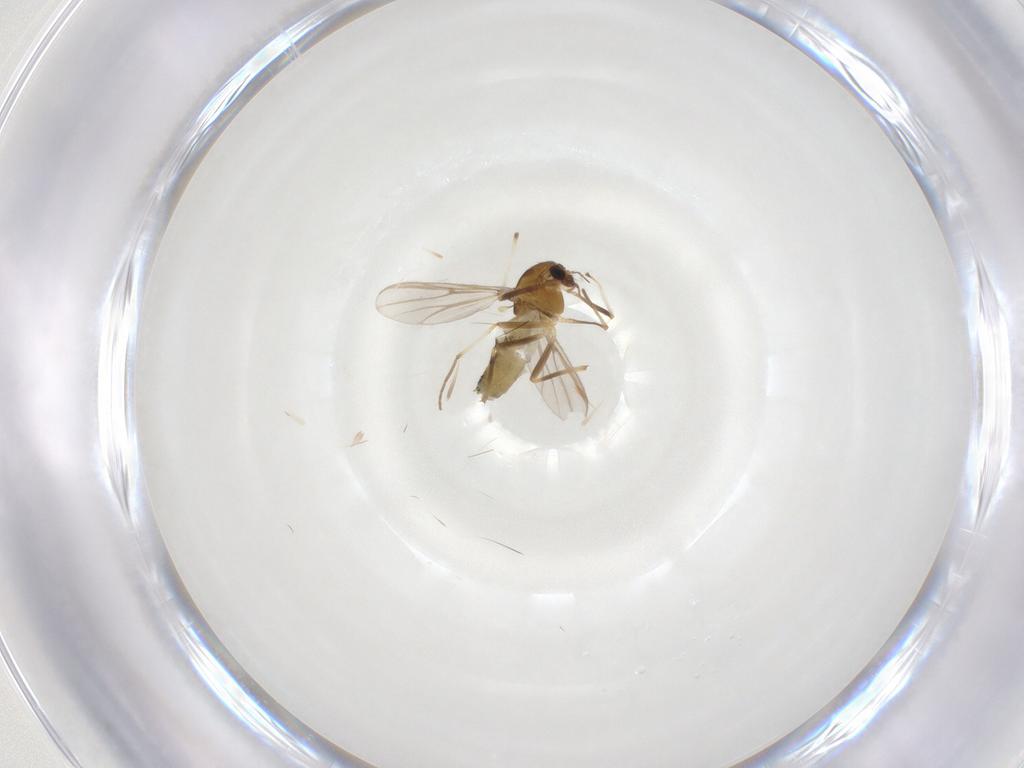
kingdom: Animalia
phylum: Arthropoda
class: Insecta
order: Diptera
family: Chironomidae
